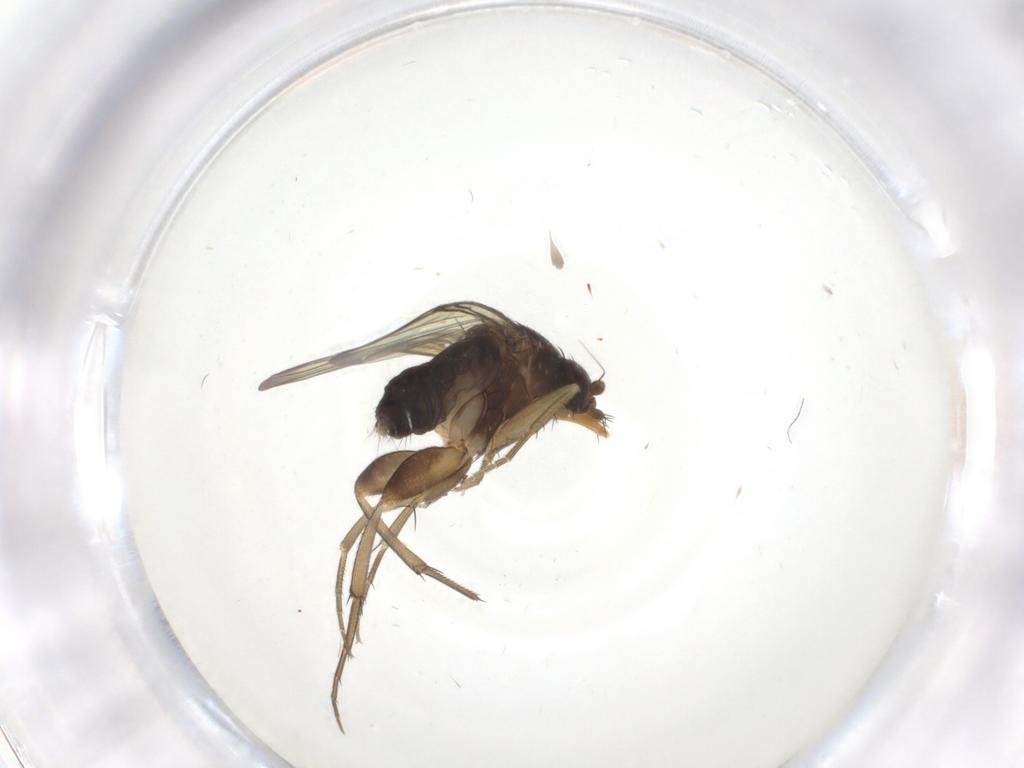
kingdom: Animalia
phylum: Arthropoda
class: Insecta
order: Diptera
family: Phoridae
